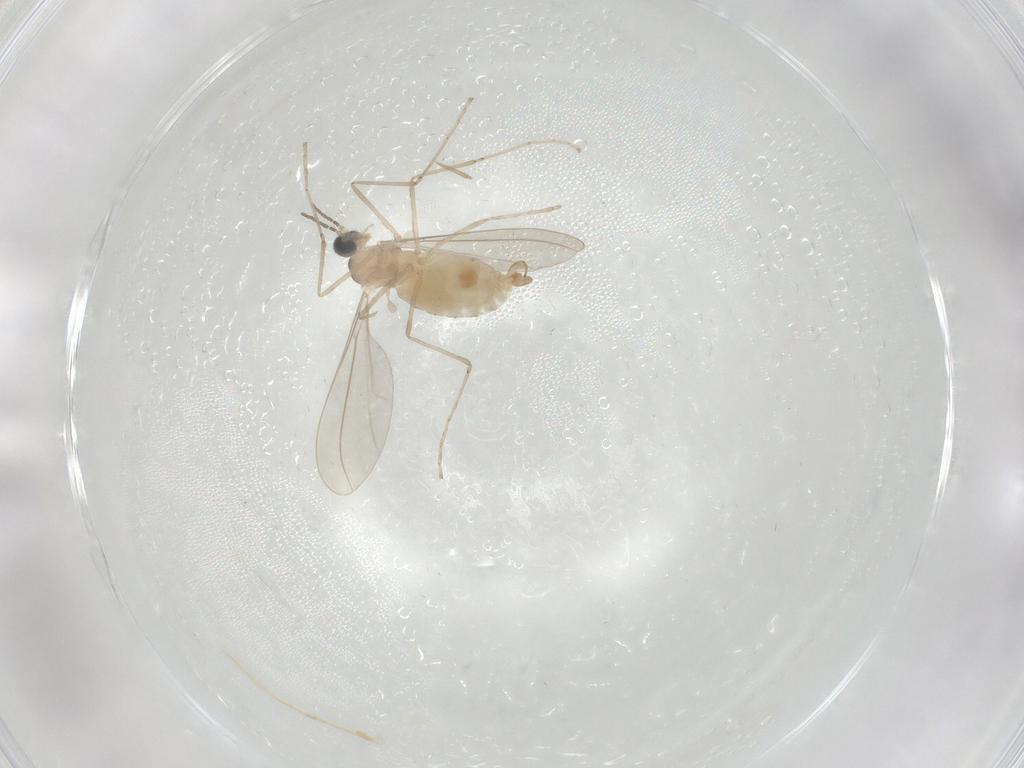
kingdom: Animalia
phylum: Arthropoda
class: Insecta
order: Diptera
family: Cecidomyiidae
